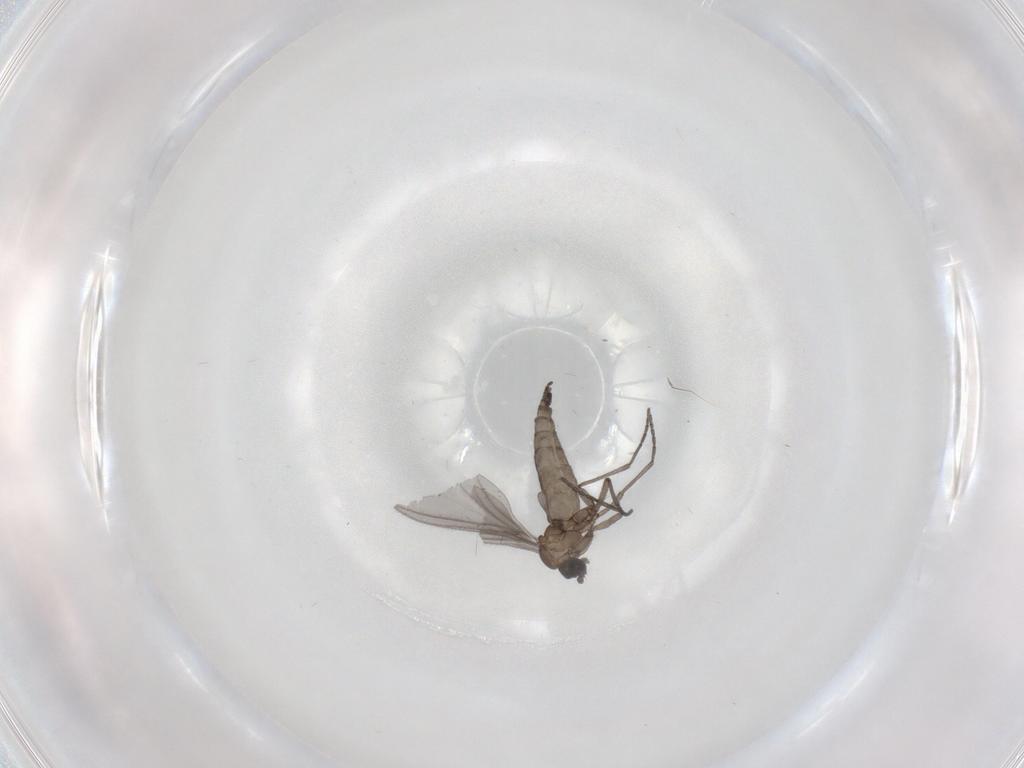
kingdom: Animalia
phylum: Arthropoda
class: Insecta
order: Diptera
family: Sciaridae
